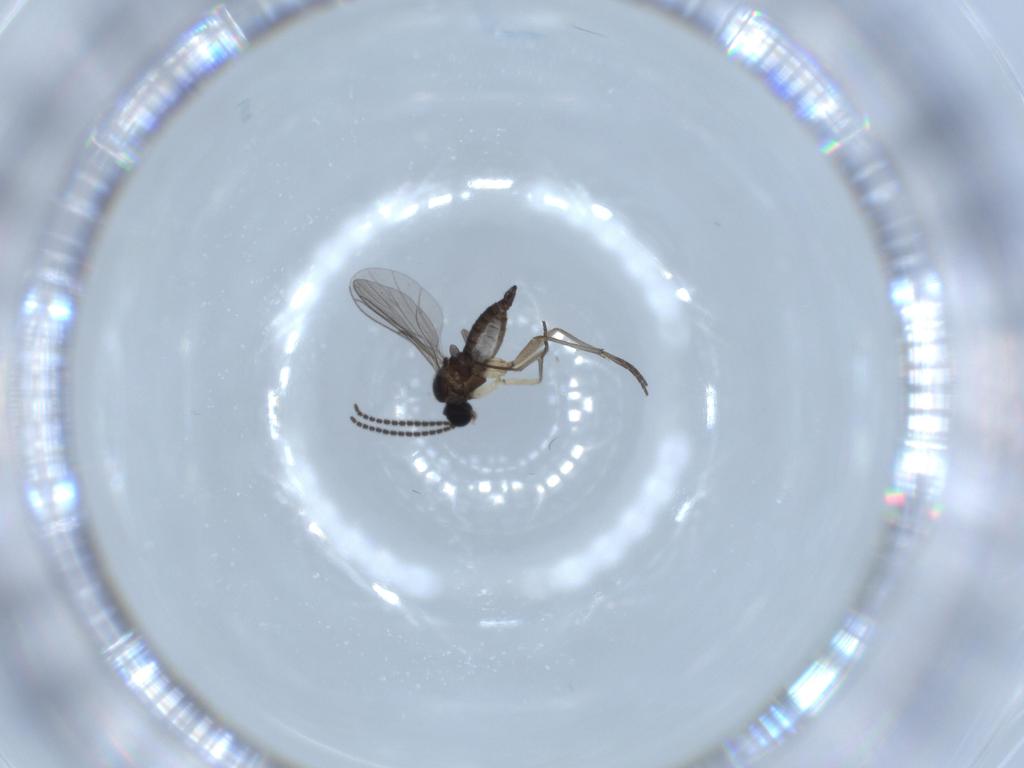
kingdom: Animalia
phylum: Arthropoda
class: Insecta
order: Diptera
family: Sciaridae
